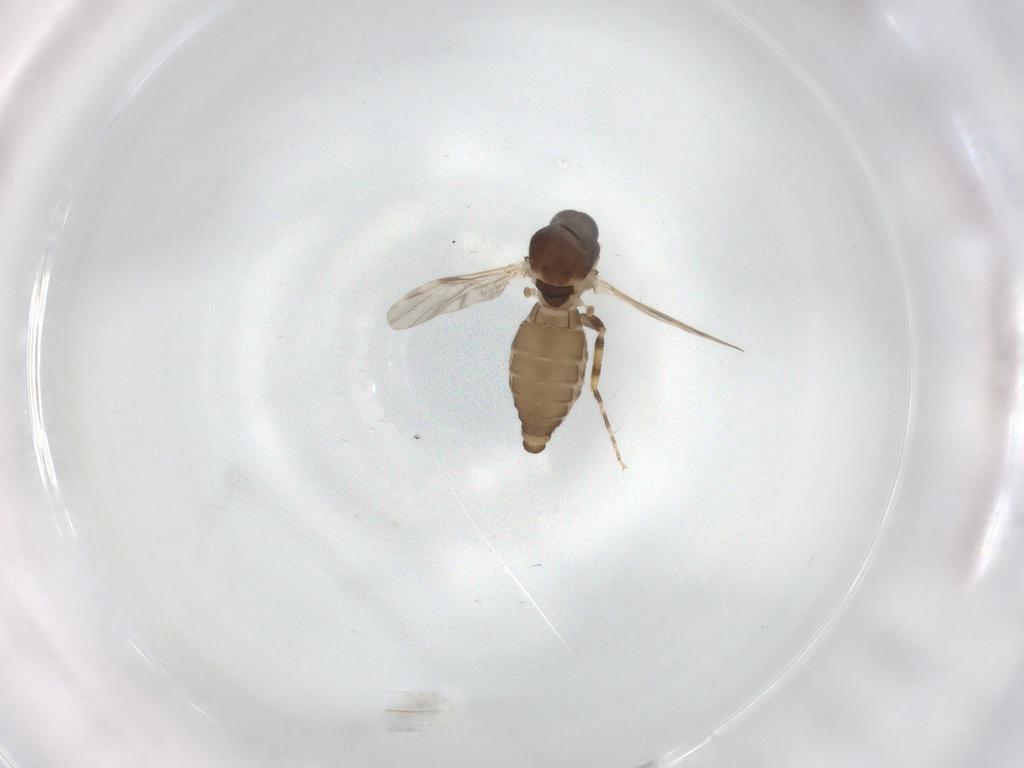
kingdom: Animalia
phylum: Arthropoda
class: Insecta
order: Diptera
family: Ceratopogonidae
